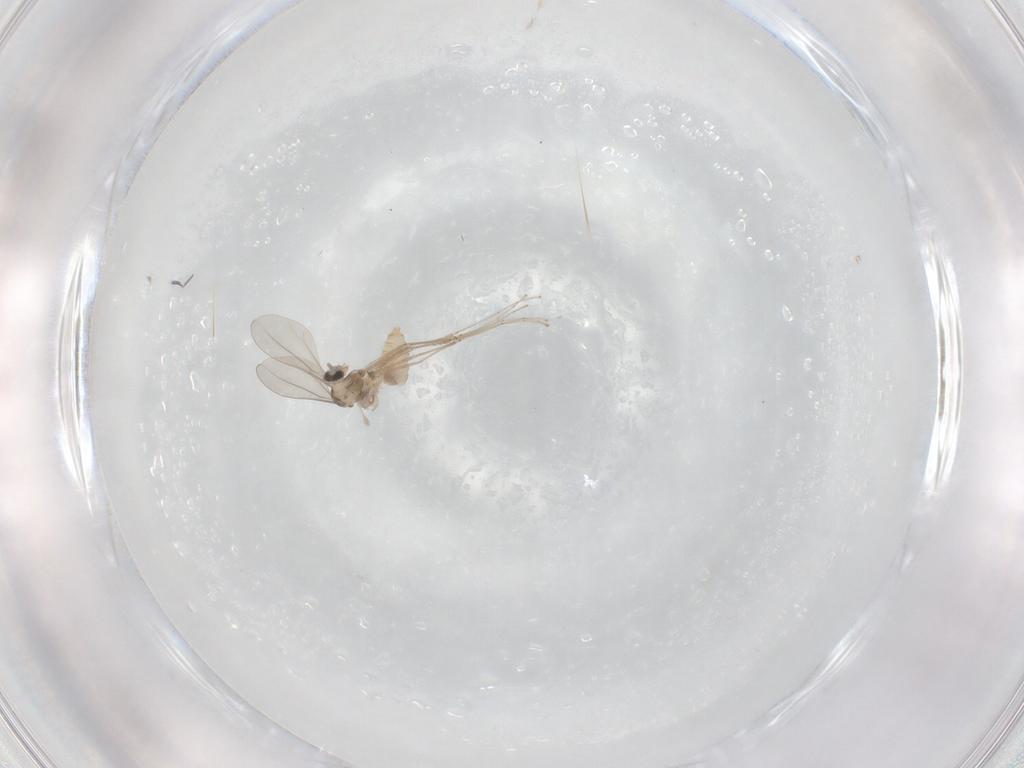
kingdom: Animalia
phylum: Arthropoda
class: Insecta
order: Diptera
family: Cecidomyiidae
